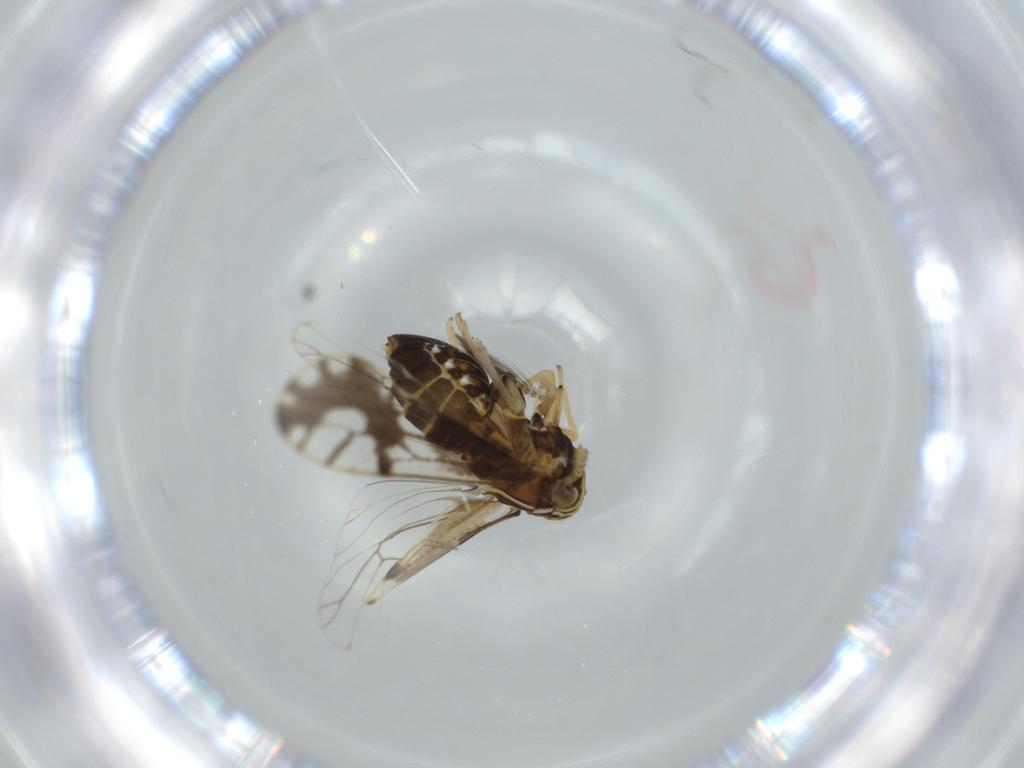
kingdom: Animalia
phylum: Arthropoda
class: Insecta
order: Hemiptera
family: Delphacidae
